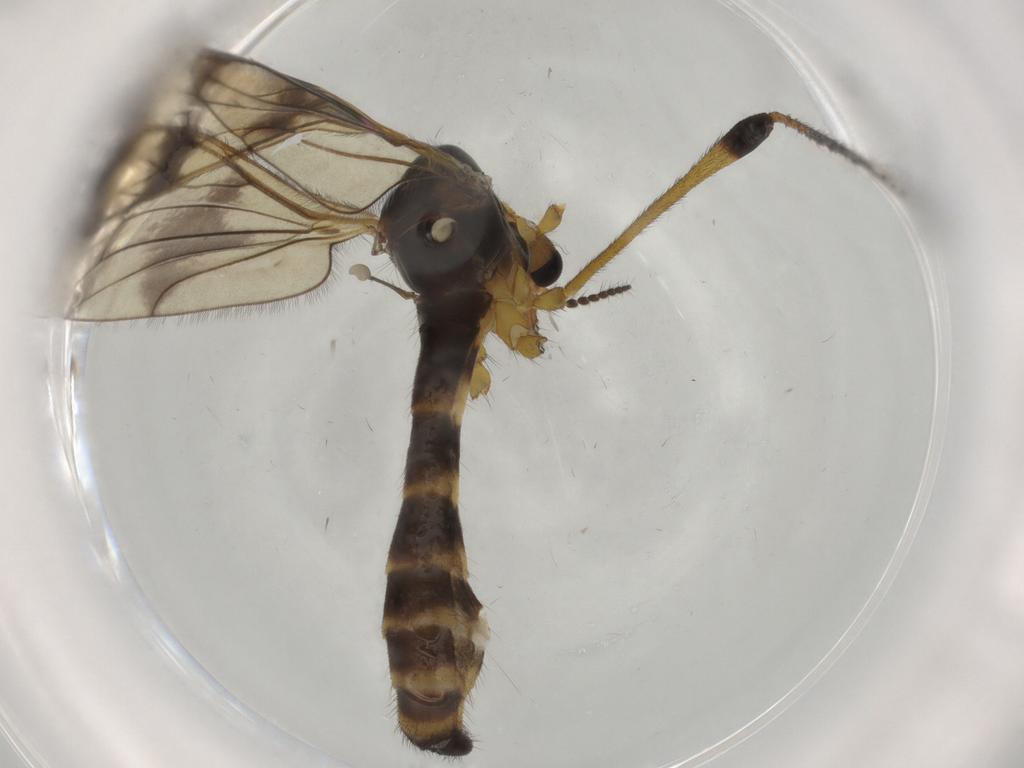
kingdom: Animalia
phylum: Arthropoda
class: Insecta
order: Diptera
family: Limoniidae
